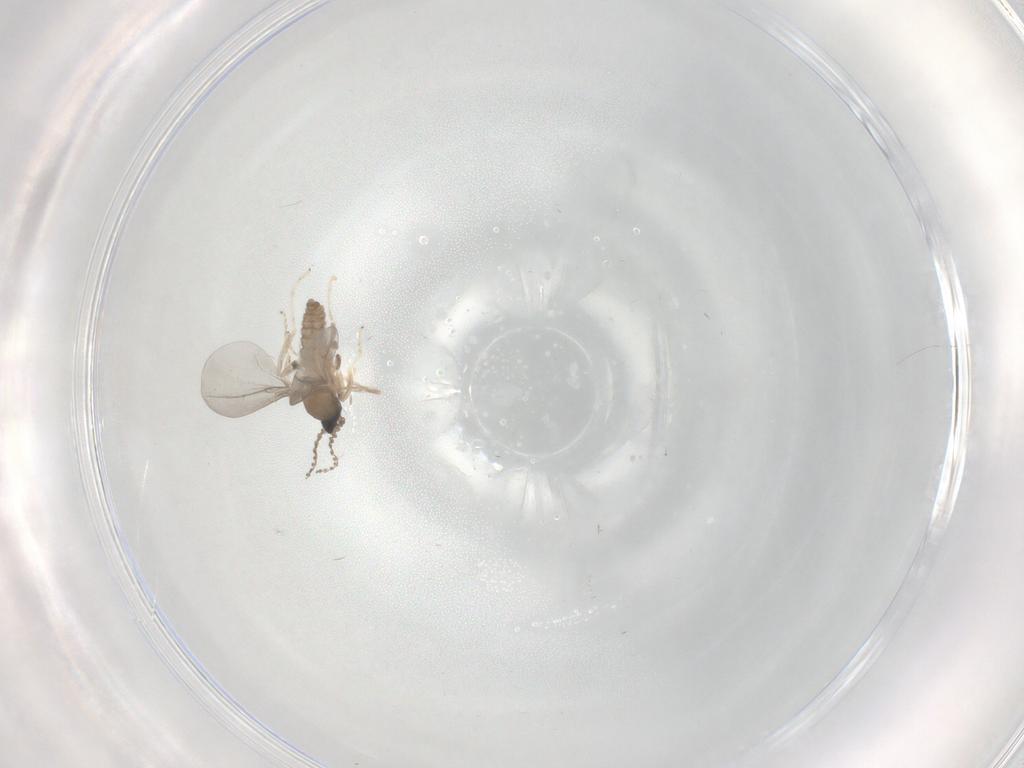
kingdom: Animalia
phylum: Arthropoda
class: Insecta
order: Diptera
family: Cecidomyiidae
